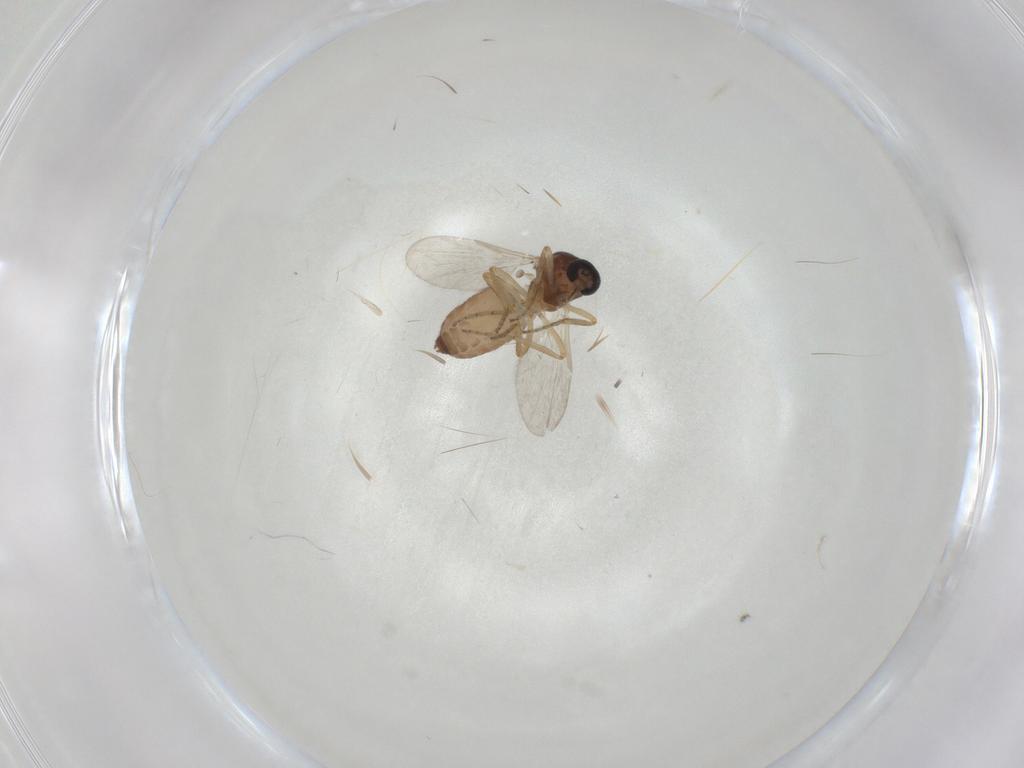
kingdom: Animalia
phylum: Arthropoda
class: Insecta
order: Diptera
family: Ceratopogonidae
